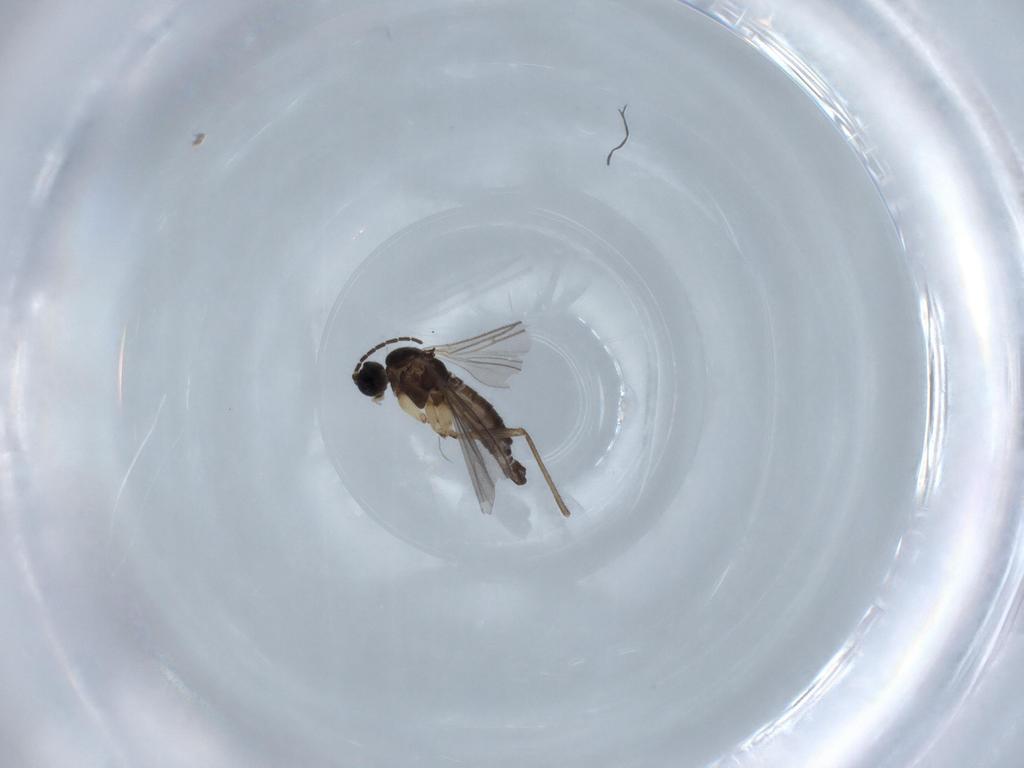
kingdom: Animalia
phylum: Arthropoda
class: Insecta
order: Diptera
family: Sciaridae
